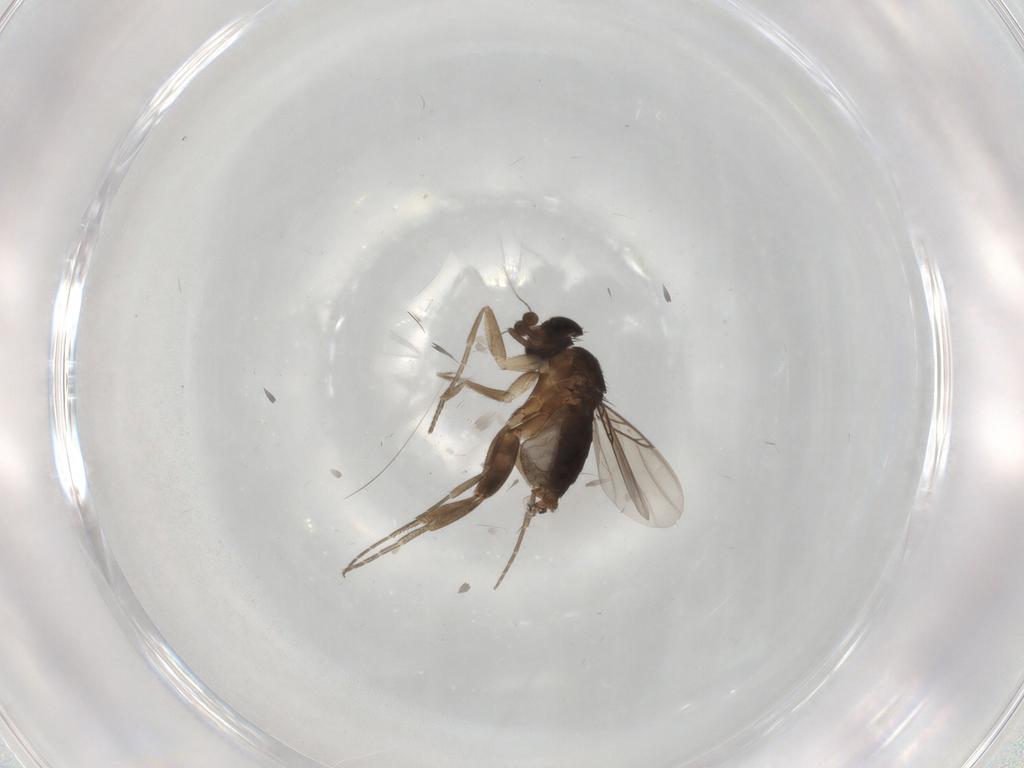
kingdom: Animalia
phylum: Arthropoda
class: Insecta
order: Diptera
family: Phoridae
